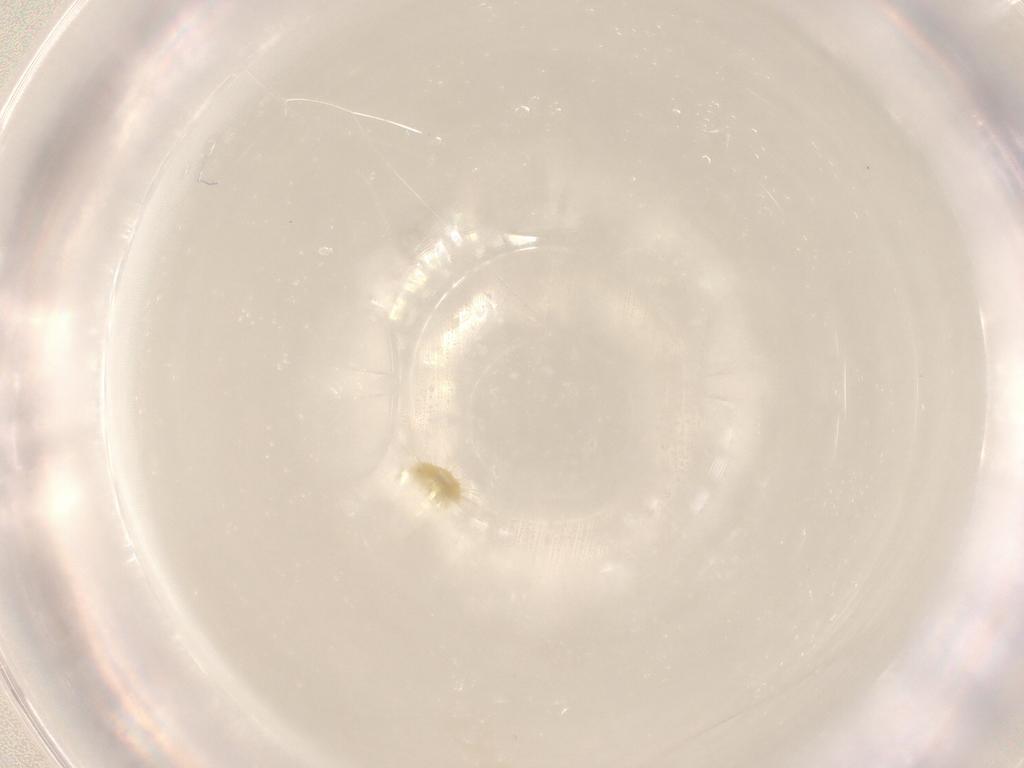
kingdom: Animalia
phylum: Arthropoda
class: Arachnida
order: Trombidiformes
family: Tetranychidae
